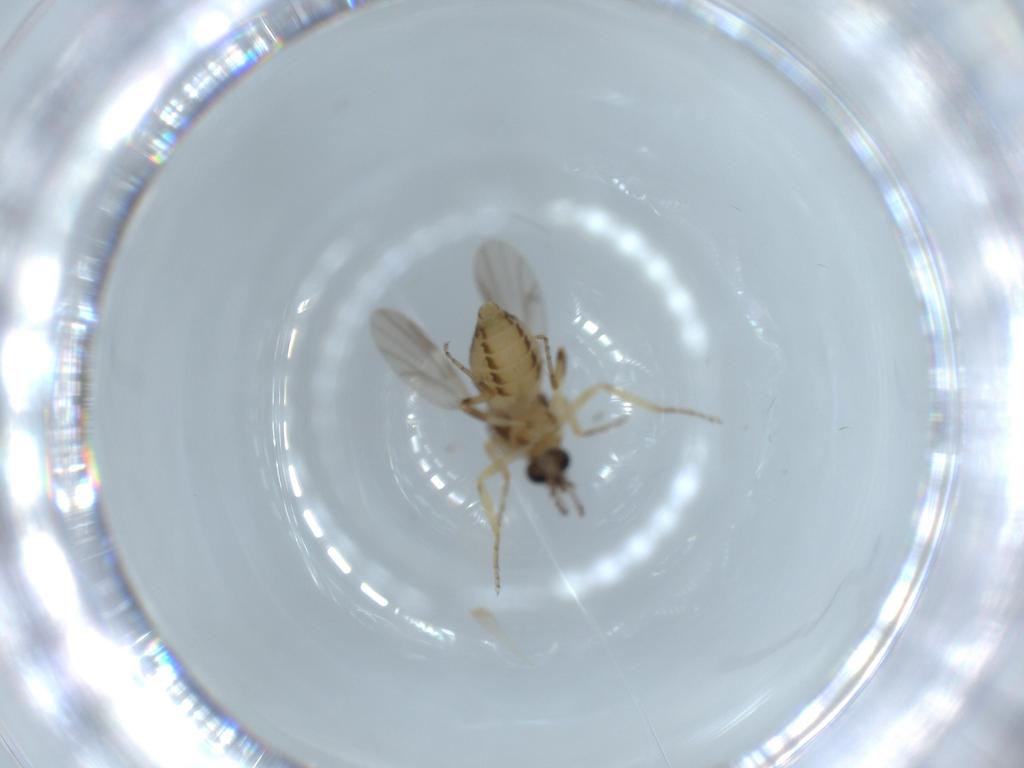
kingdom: Animalia
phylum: Arthropoda
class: Insecta
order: Diptera
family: Ceratopogonidae
